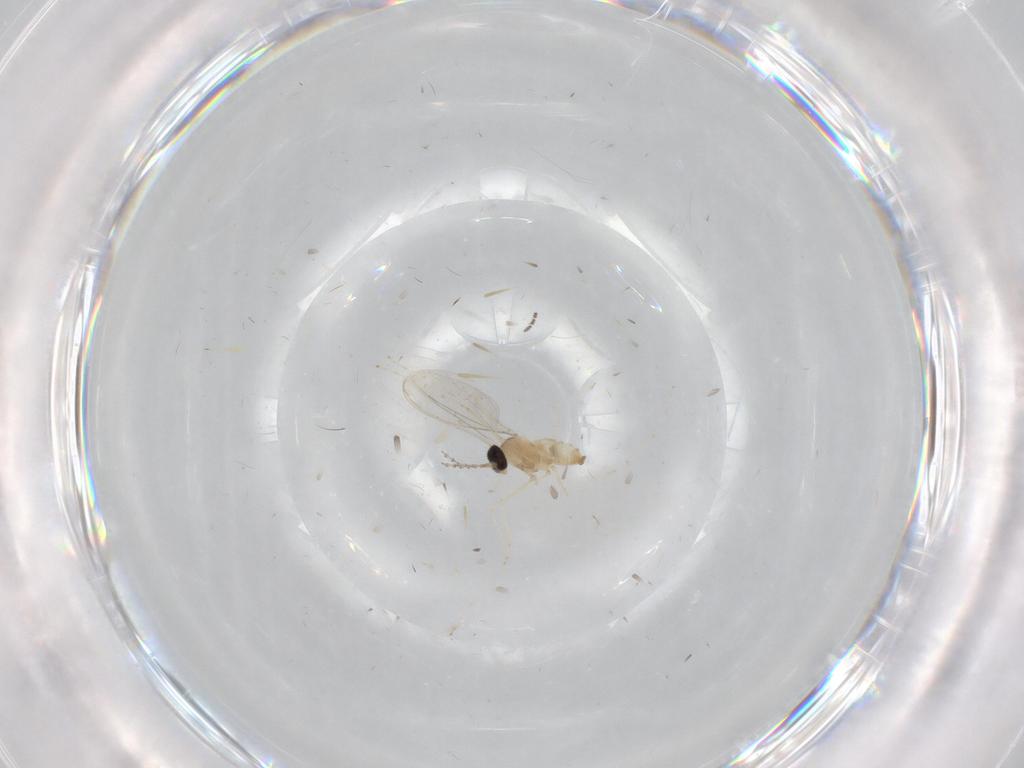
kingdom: Animalia
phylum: Arthropoda
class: Insecta
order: Diptera
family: Cecidomyiidae
